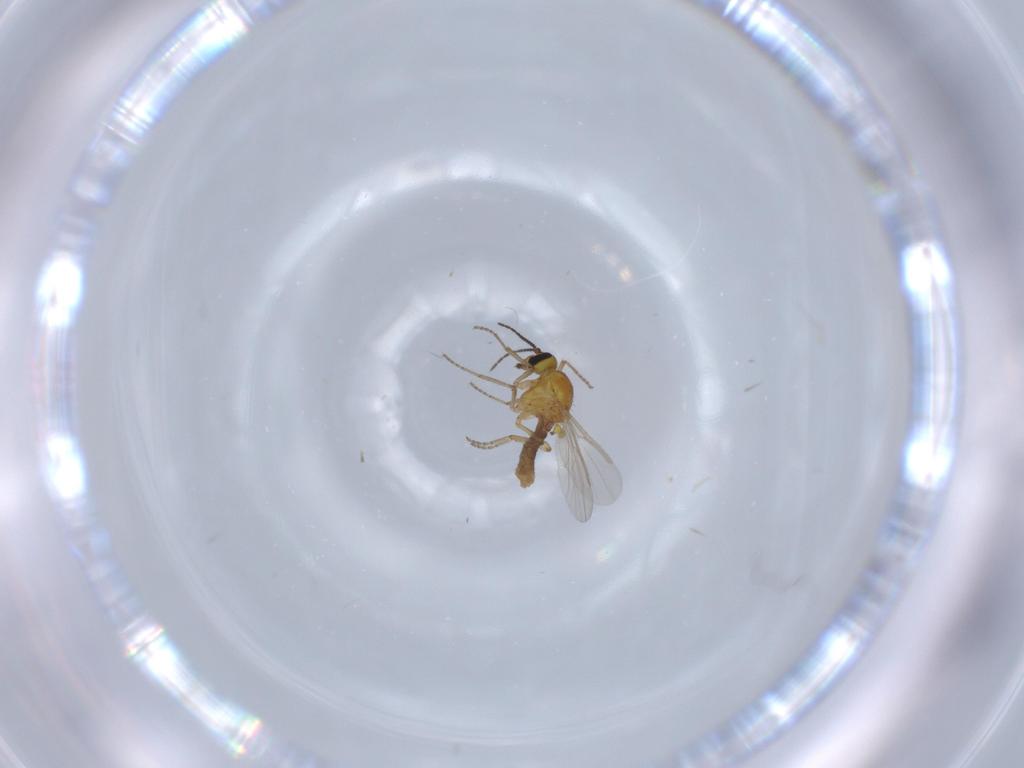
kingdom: Animalia
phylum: Arthropoda
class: Insecta
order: Diptera
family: Ceratopogonidae
